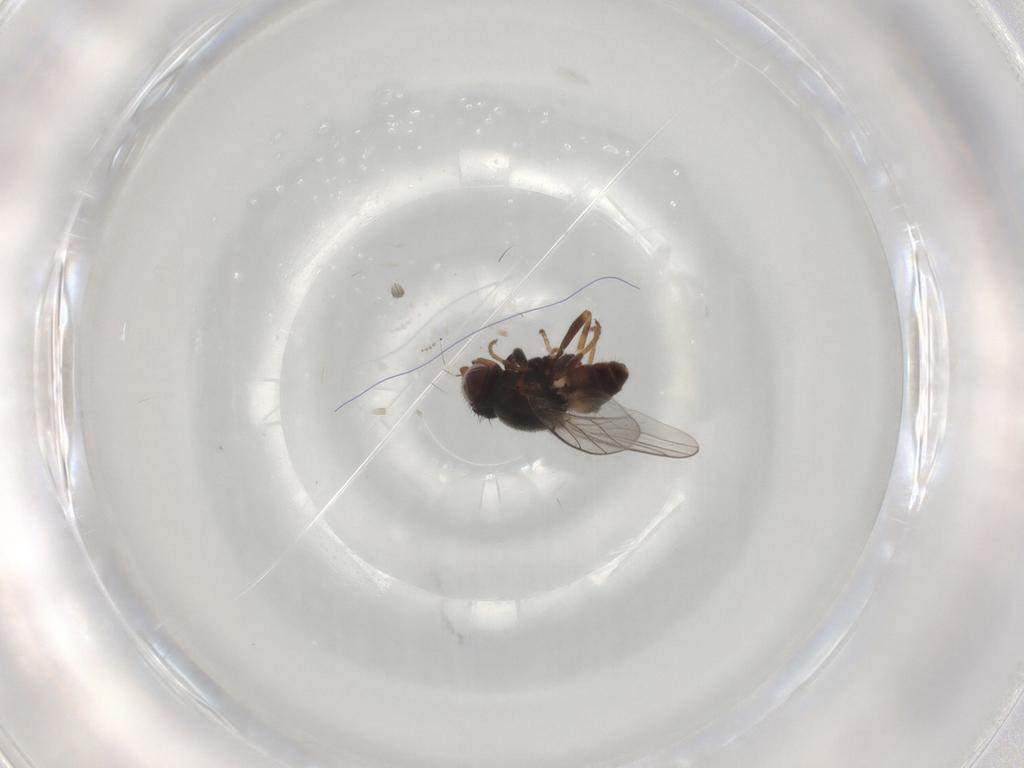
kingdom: Animalia
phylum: Arthropoda
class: Insecta
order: Diptera
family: Chloropidae
